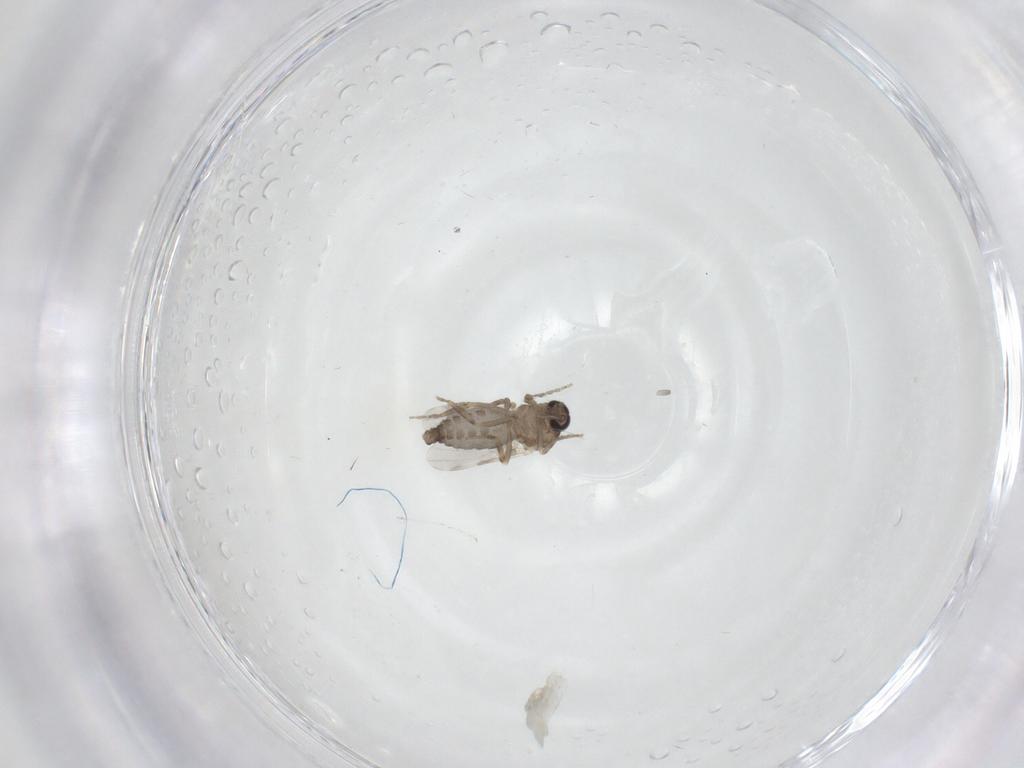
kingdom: Animalia
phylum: Arthropoda
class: Insecta
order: Diptera
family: Ceratopogonidae
